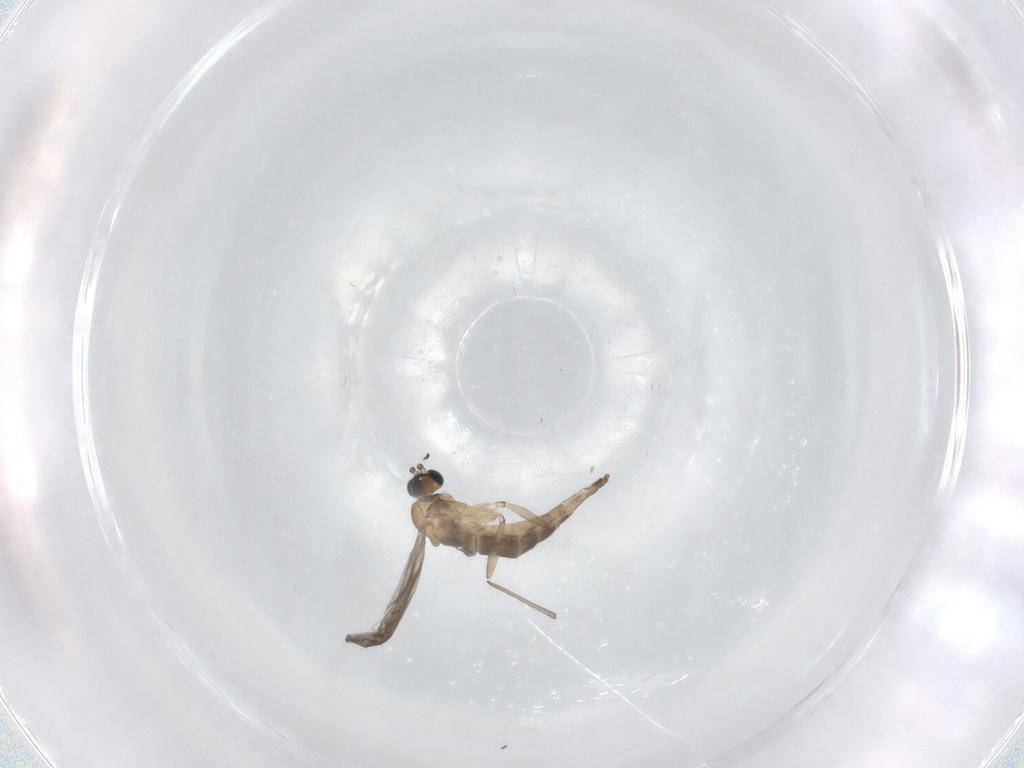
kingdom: Animalia
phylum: Arthropoda
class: Insecta
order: Diptera
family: Sciaridae
